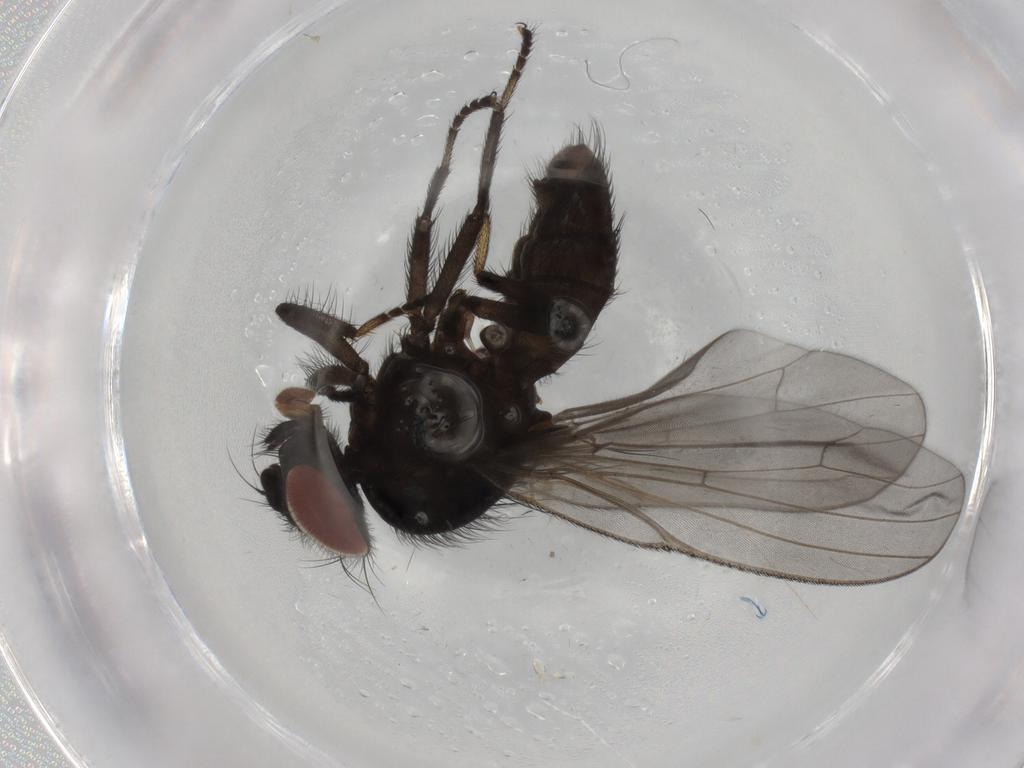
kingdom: Animalia
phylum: Arthropoda
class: Insecta
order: Diptera
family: Lonchaeidae
